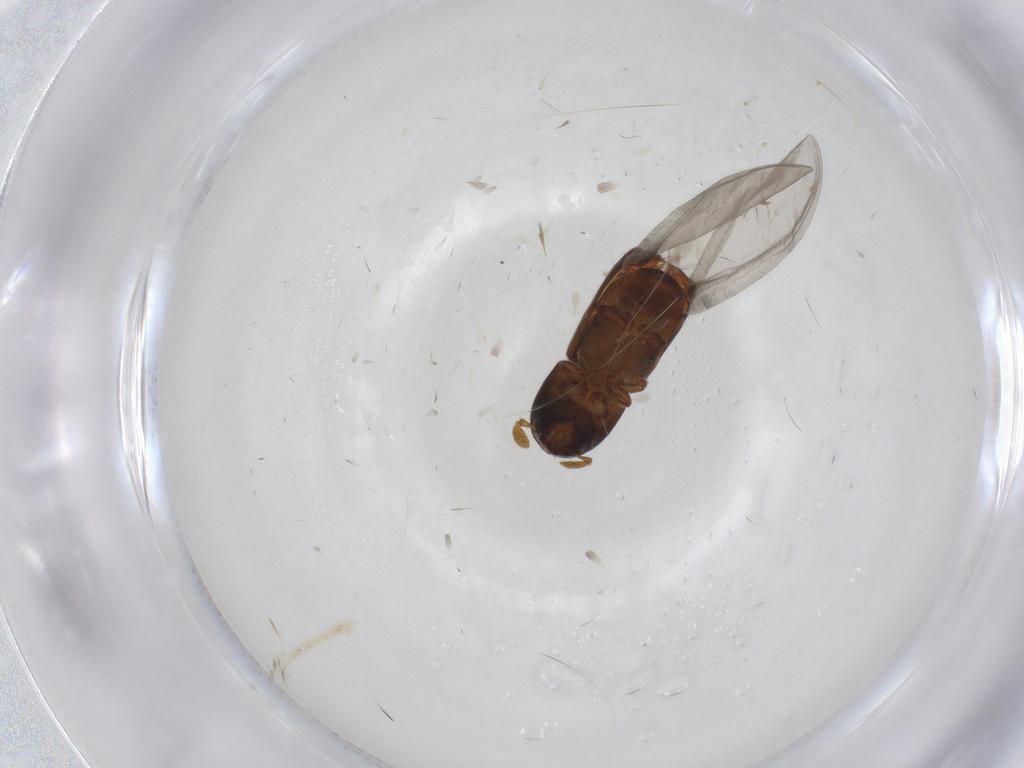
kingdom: Animalia
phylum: Arthropoda
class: Insecta
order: Coleoptera
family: Curculionidae
